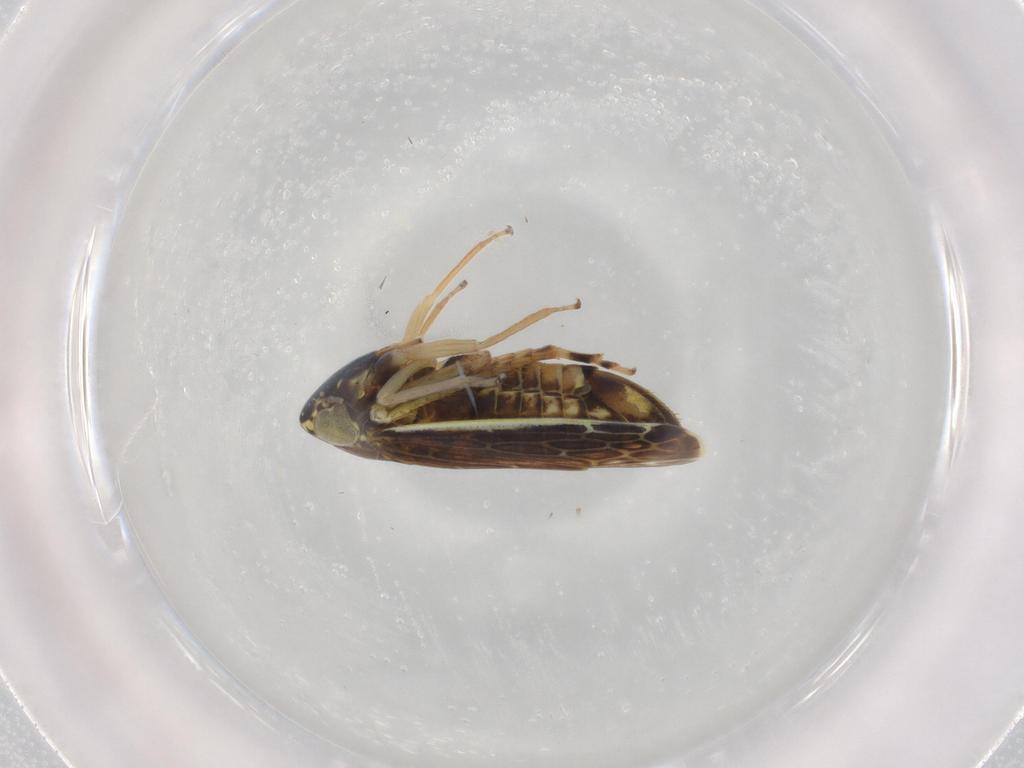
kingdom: Animalia
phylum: Arthropoda
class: Insecta
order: Hemiptera
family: Cicadellidae
